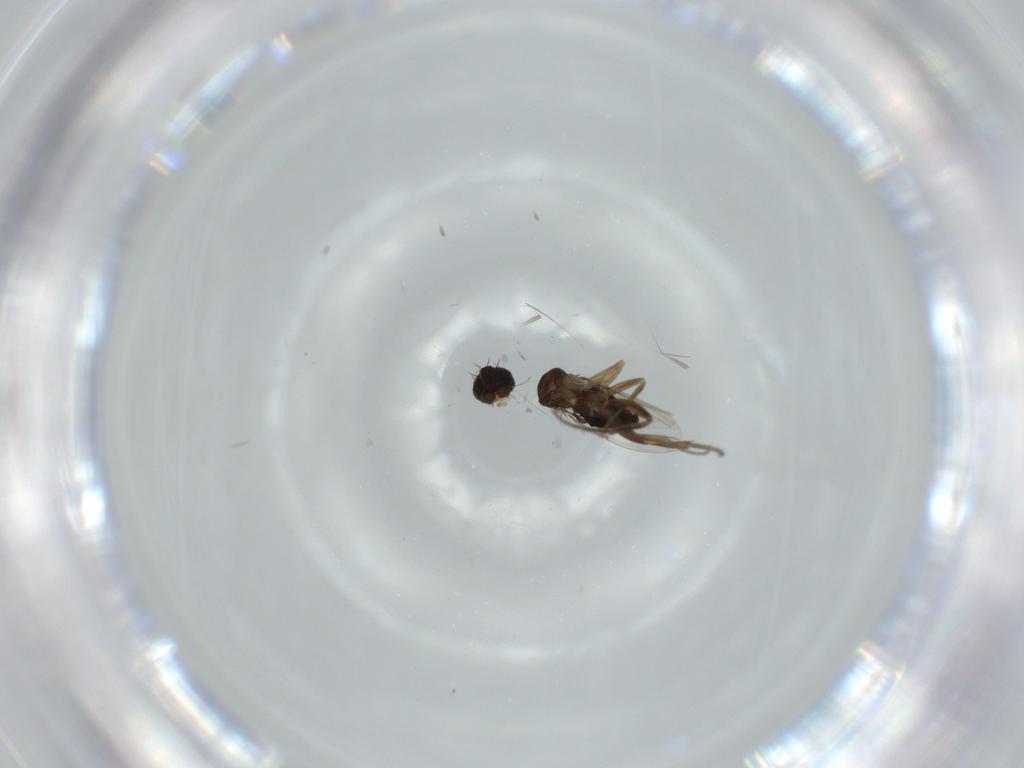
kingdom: Animalia
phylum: Arthropoda
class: Insecta
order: Diptera
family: Phoridae
